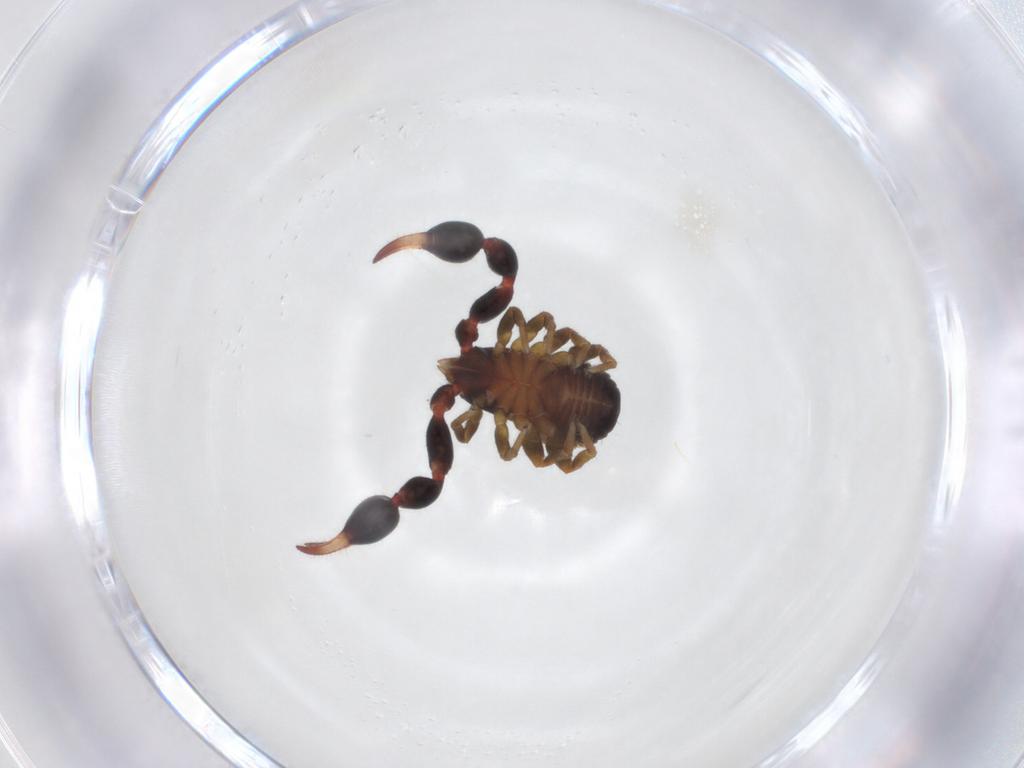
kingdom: Animalia
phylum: Arthropoda
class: Arachnida
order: Pseudoscorpiones
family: Chernetidae
